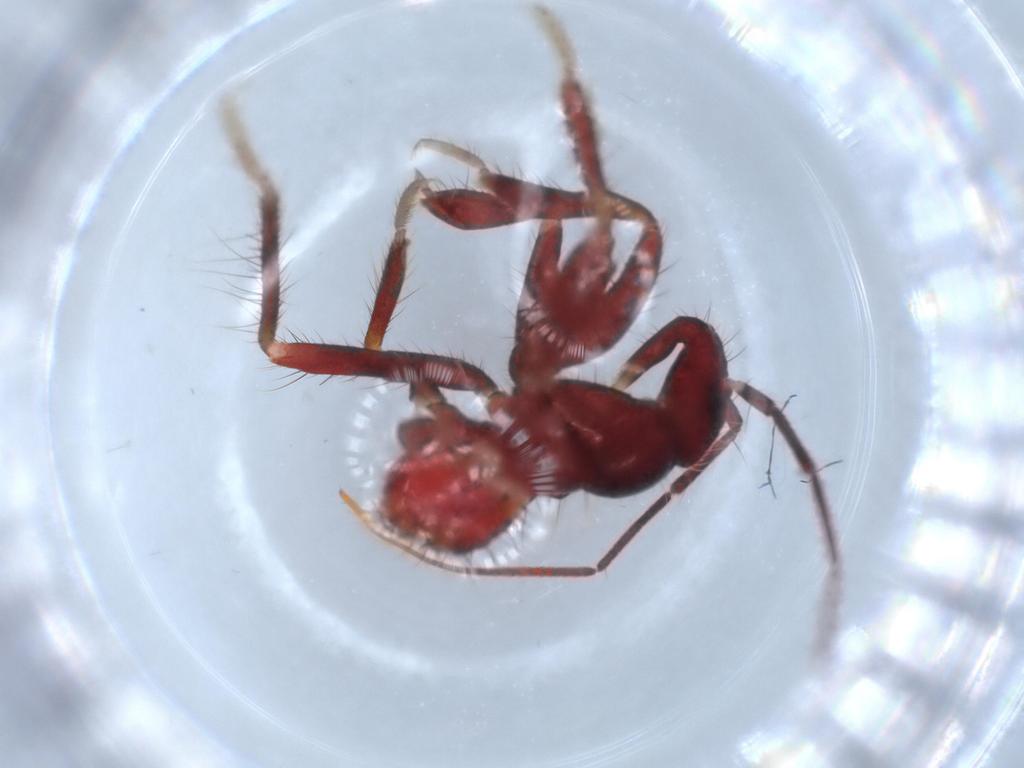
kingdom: Animalia
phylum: Arthropoda
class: Insecta
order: Hemiptera
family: Reduviidae
